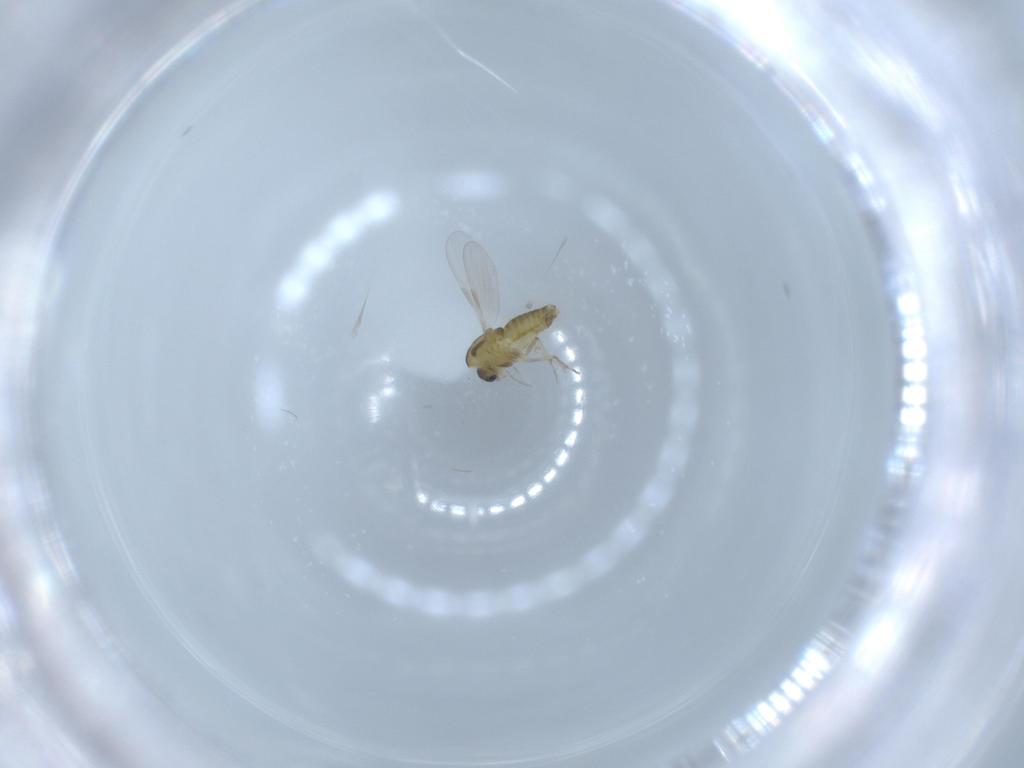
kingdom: Animalia
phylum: Arthropoda
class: Insecta
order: Diptera
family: Chironomidae
